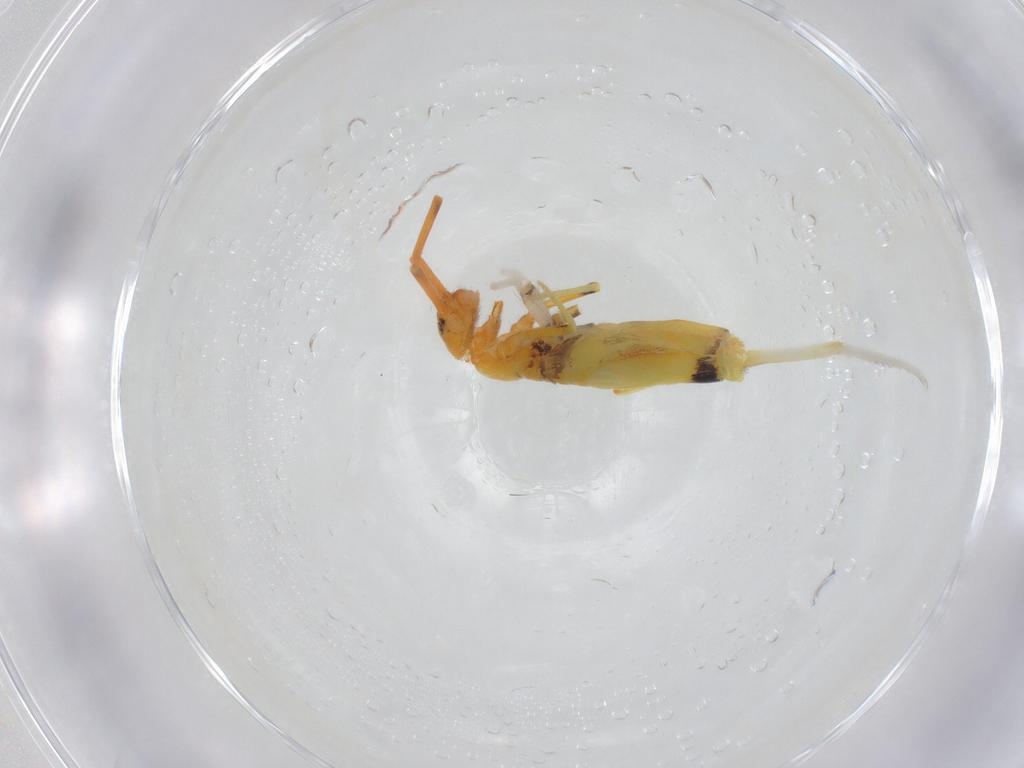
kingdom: Animalia
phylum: Arthropoda
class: Collembola
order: Entomobryomorpha
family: Entomobryidae
